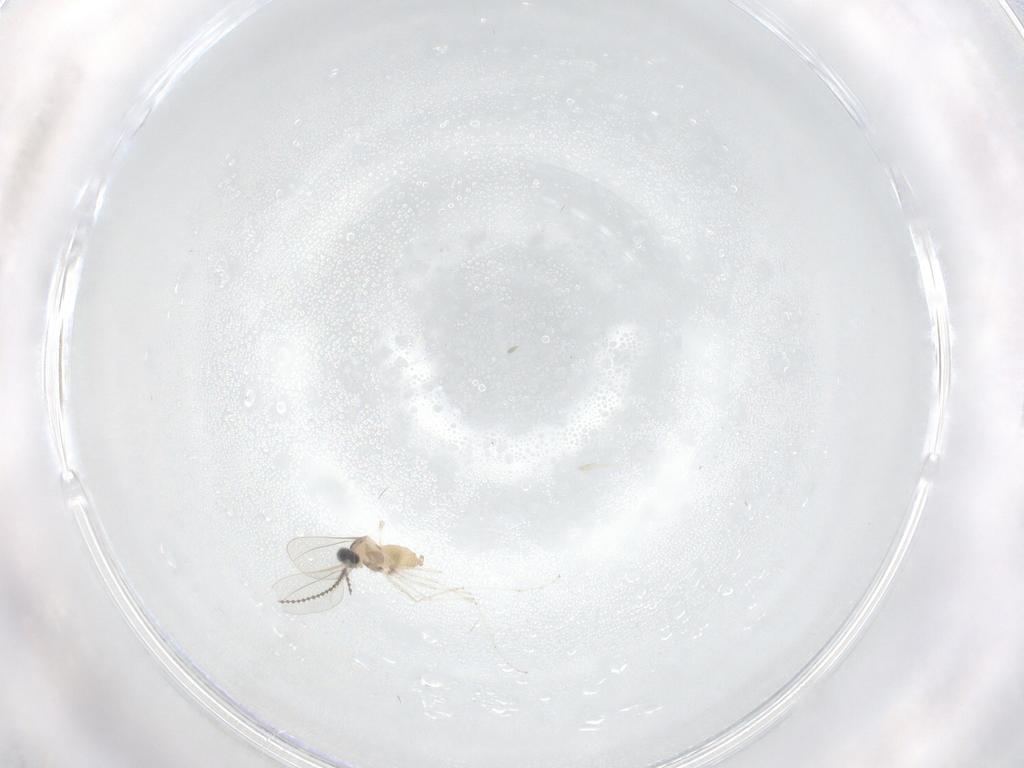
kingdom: Animalia
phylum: Arthropoda
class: Insecta
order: Diptera
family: Cecidomyiidae
